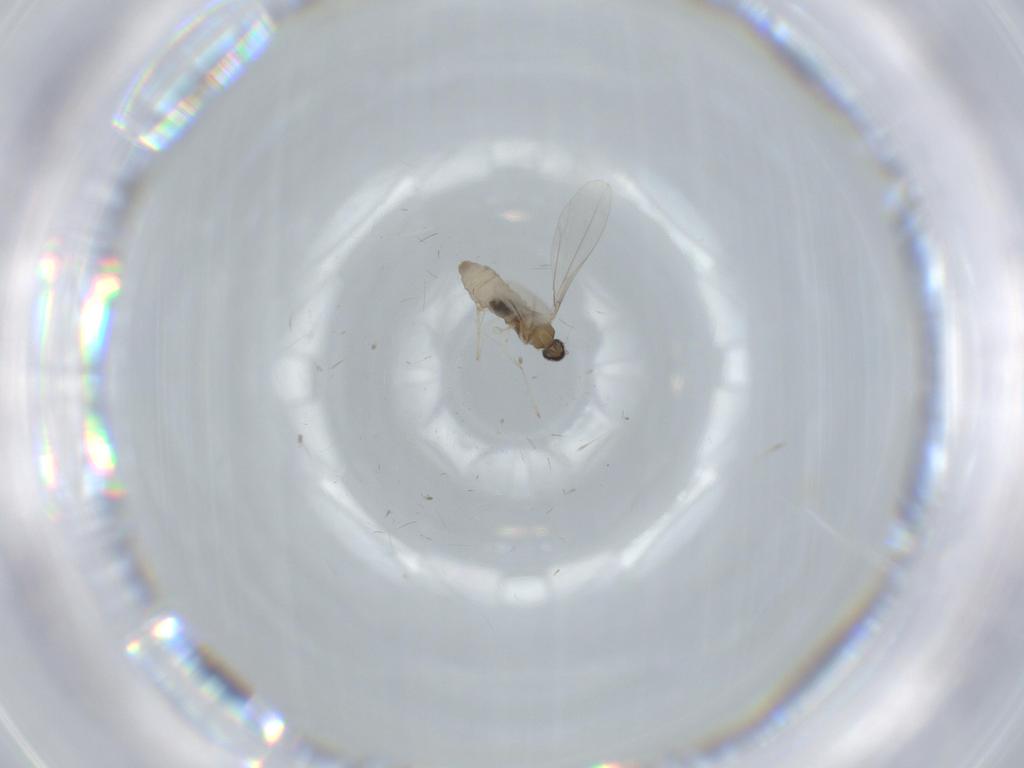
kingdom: Animalia
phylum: Arthropoda
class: Insecta
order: Diptera
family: Cecidomyiidae
